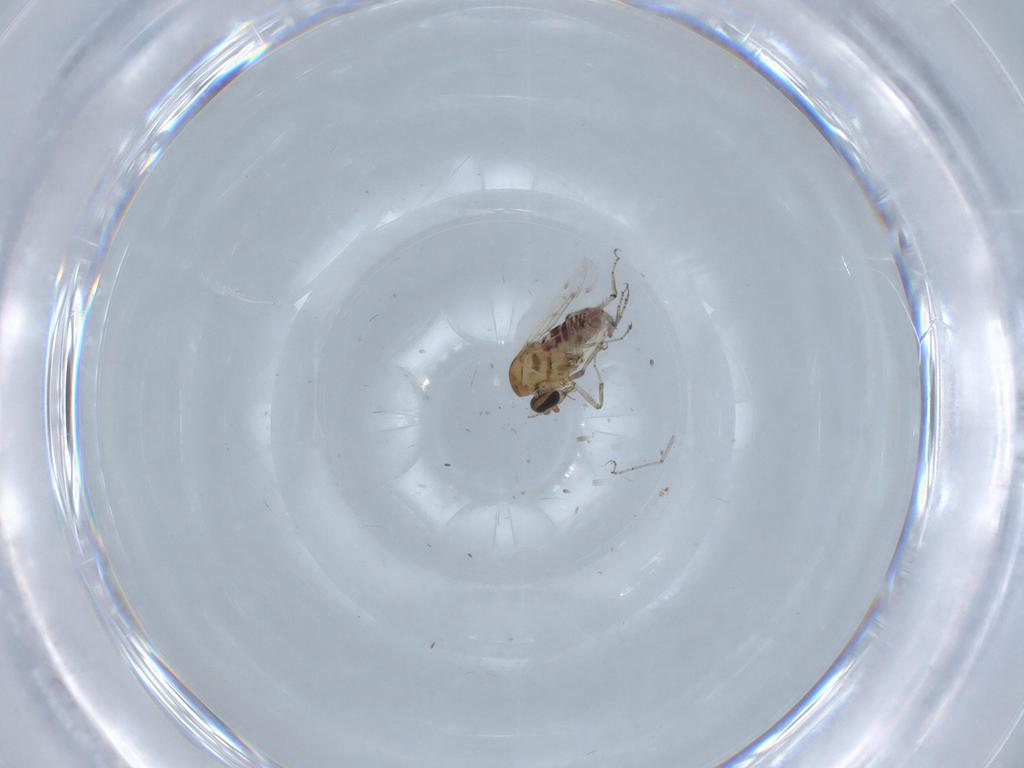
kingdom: Animalia
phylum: Arthropoda
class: Insecta
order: Diptera
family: Ceratopogonidae
